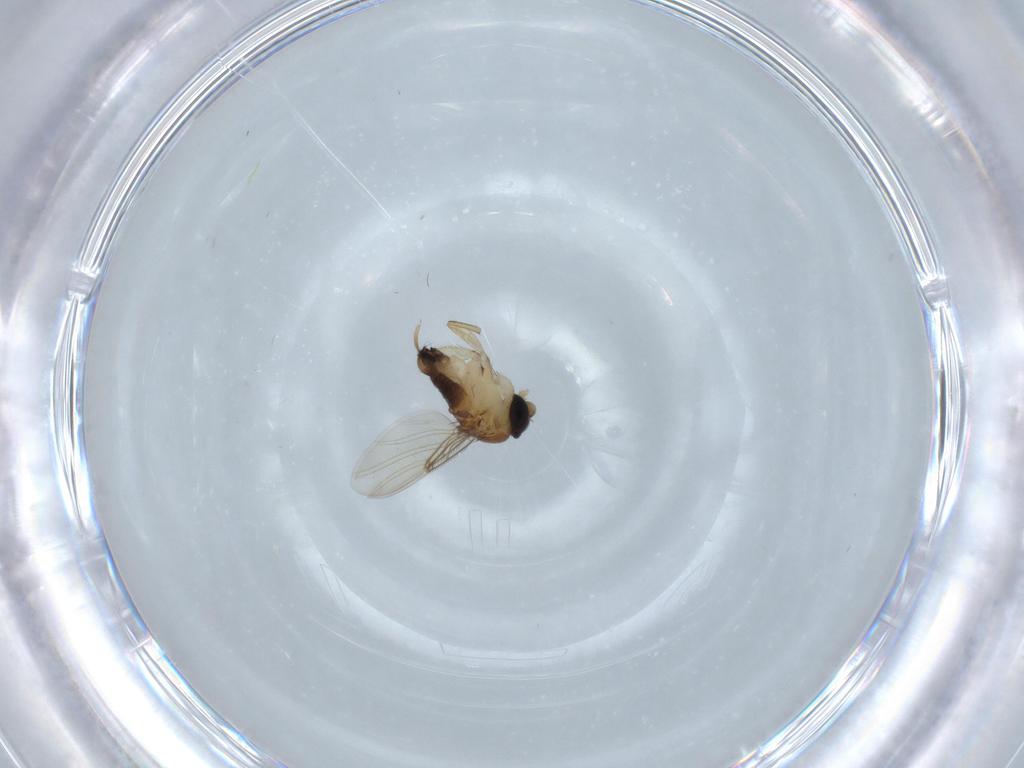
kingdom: Animalia
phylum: Arthropoda
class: Insecta
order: Diptera
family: Phoridae
